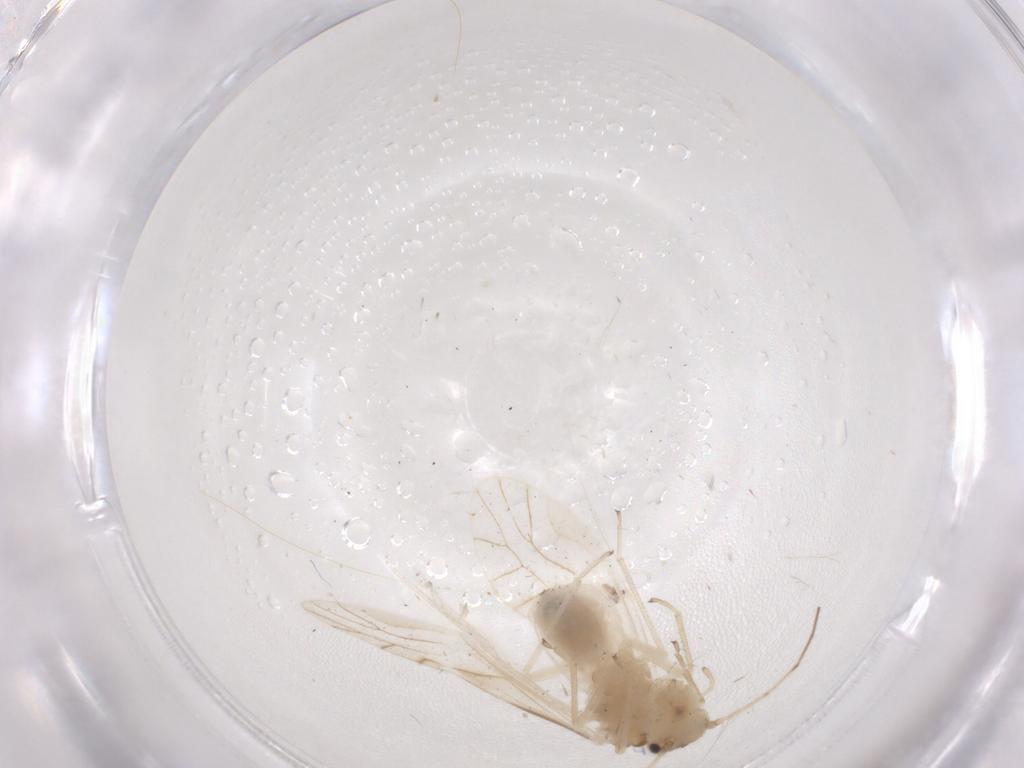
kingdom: Animalia
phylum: Arthropoda
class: Insecta
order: Psocodea
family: Caeciliusidae
